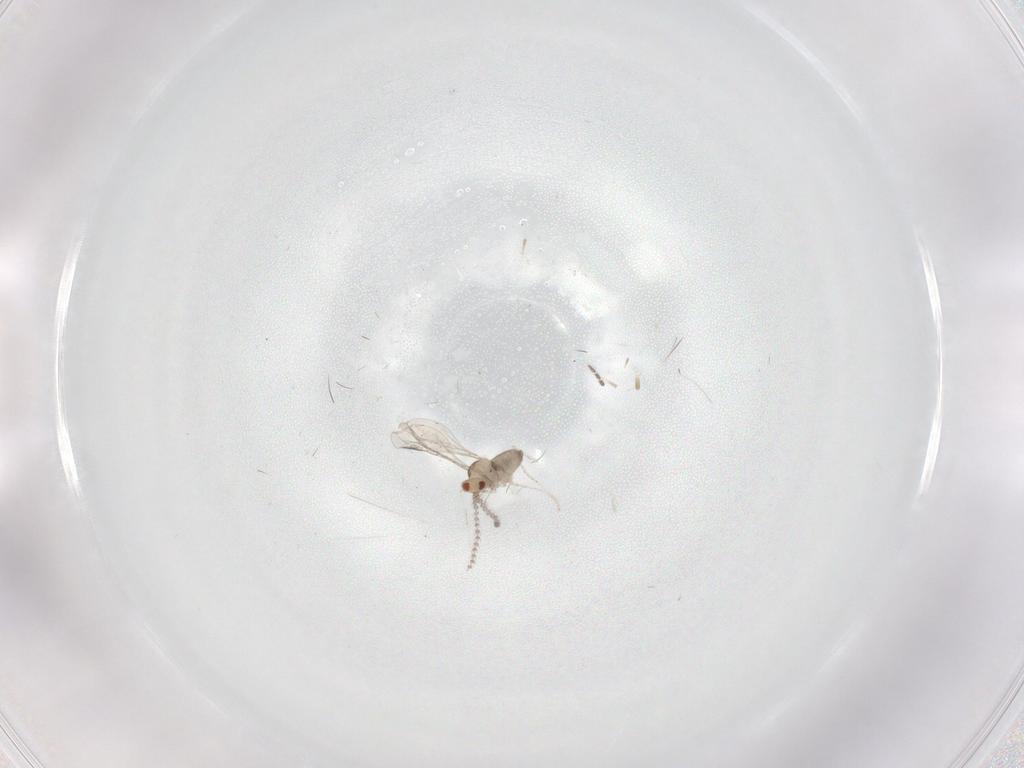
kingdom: Animalia
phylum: Arthropoda
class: Insecta
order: Diptera
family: Sciaridae
